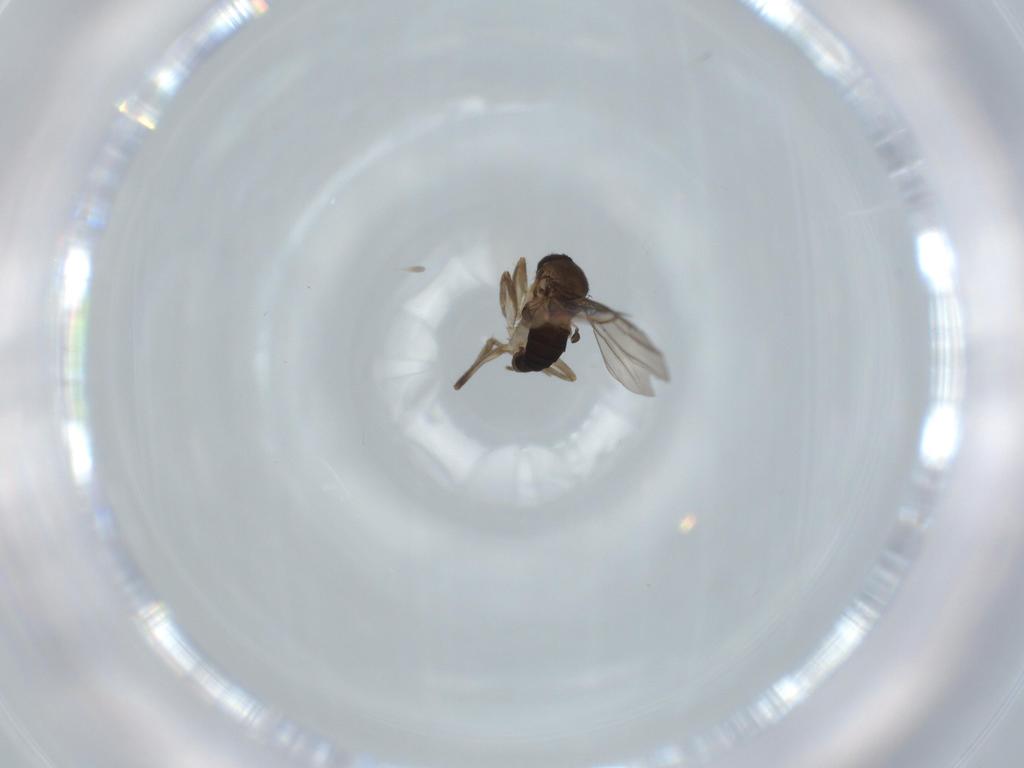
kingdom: Animalia
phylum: Arthropoda
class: Insecta
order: Diptera
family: Phoridae
